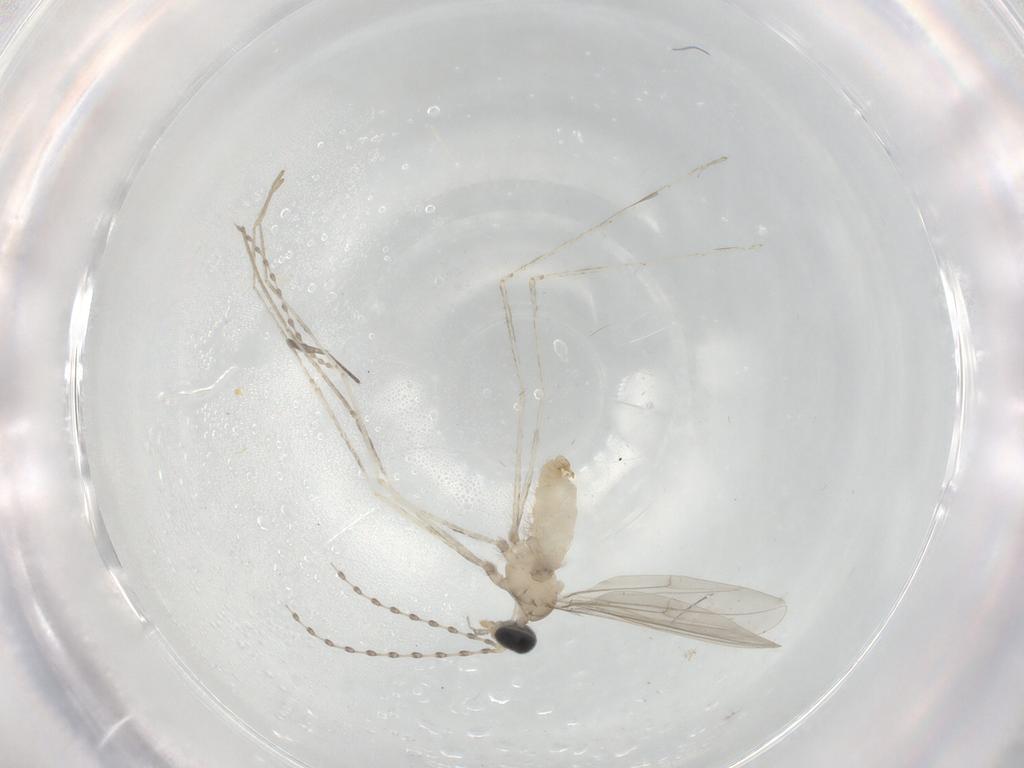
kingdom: Animalia
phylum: Arthropoda
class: Insecta
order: Diptera
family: Cecidomyiidae
